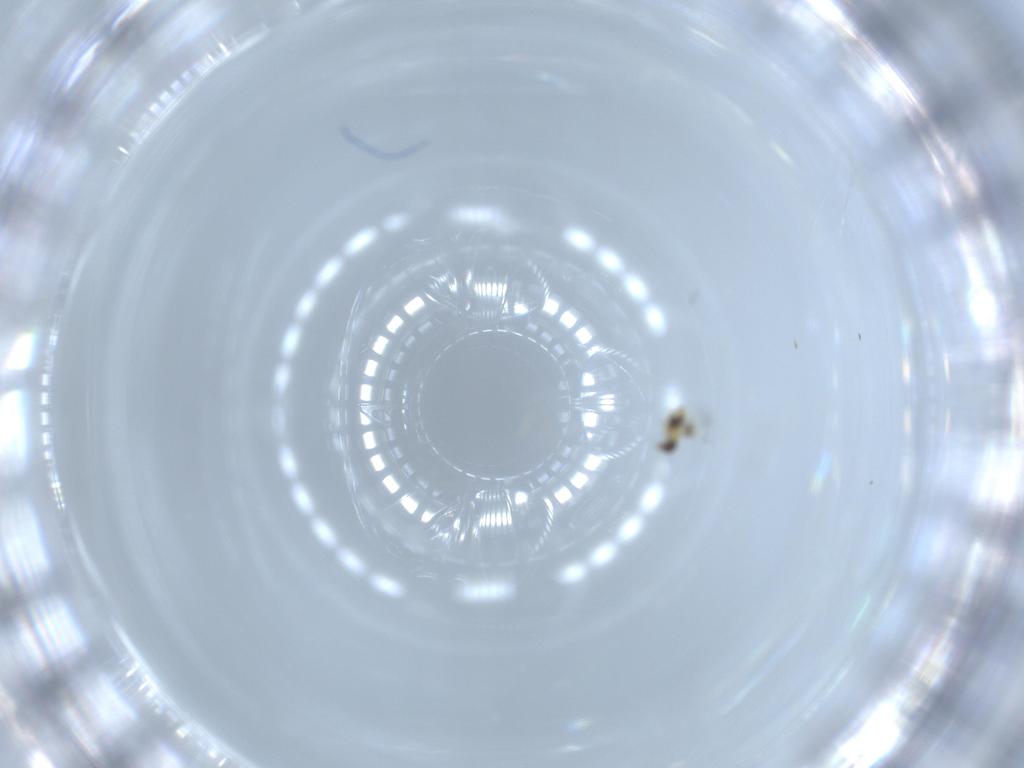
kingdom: Animalia
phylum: Arthropoda
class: Insecta
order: Hymenoptera
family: Signiphoridae
